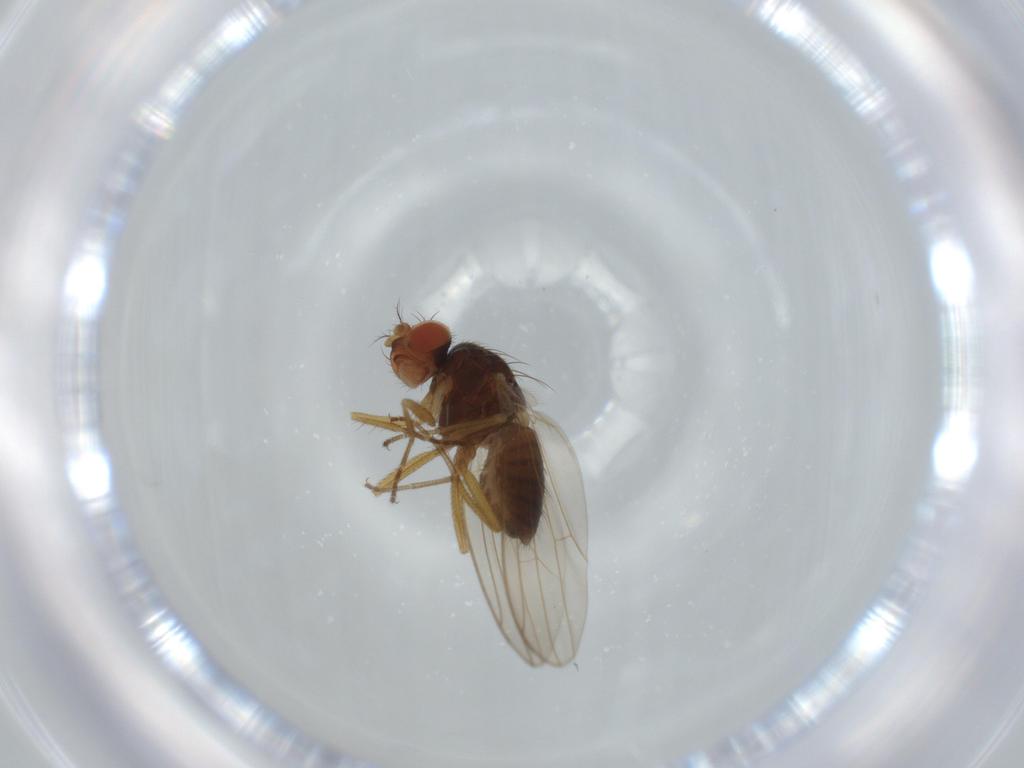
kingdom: Animalia
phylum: Arthropoda
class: Insecta
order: Diptera
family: Drosophilidae
